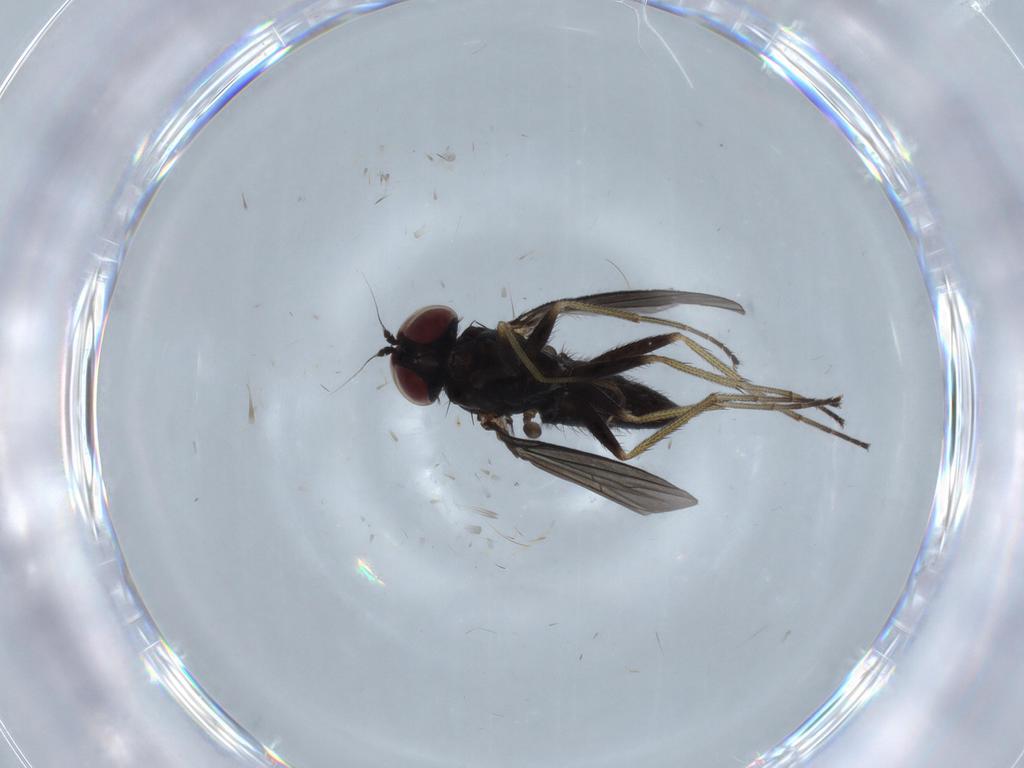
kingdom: Animalia
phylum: Arthropoda
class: Insecta
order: Diptera
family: Dolichopodidae
